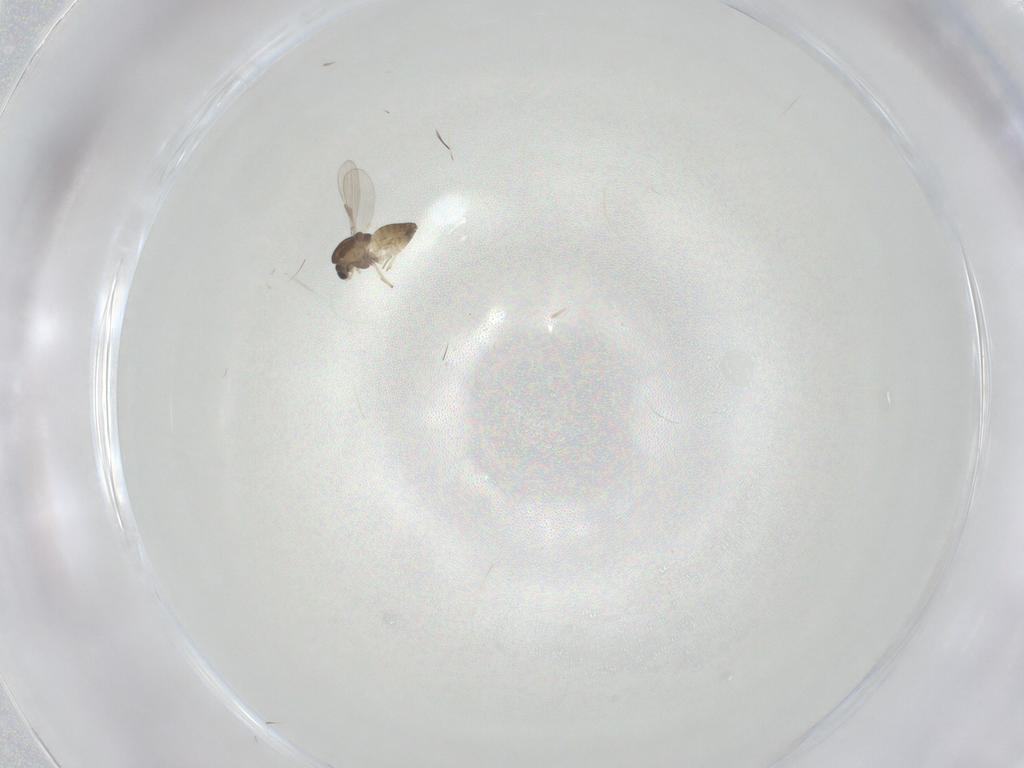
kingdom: Animalia
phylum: Arthropoda
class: Insecta
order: Diptera
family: Chironomidae
